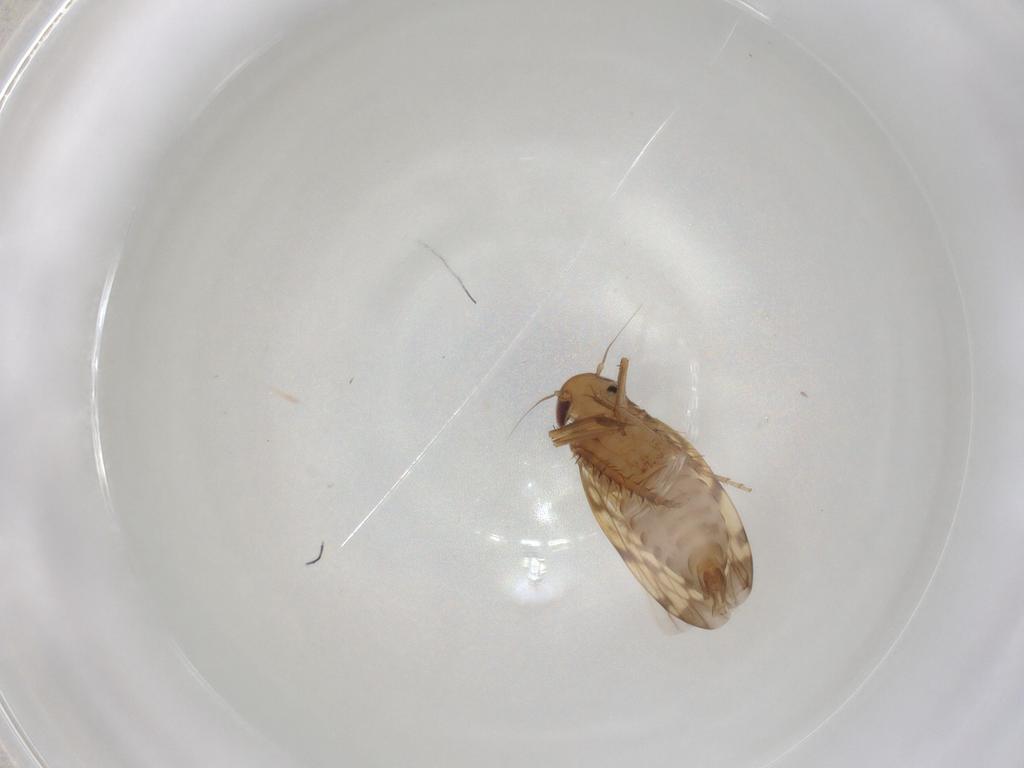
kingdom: Animalia
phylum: Arthropoda
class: Insecta
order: Hemiptera
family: Cicadellidae
